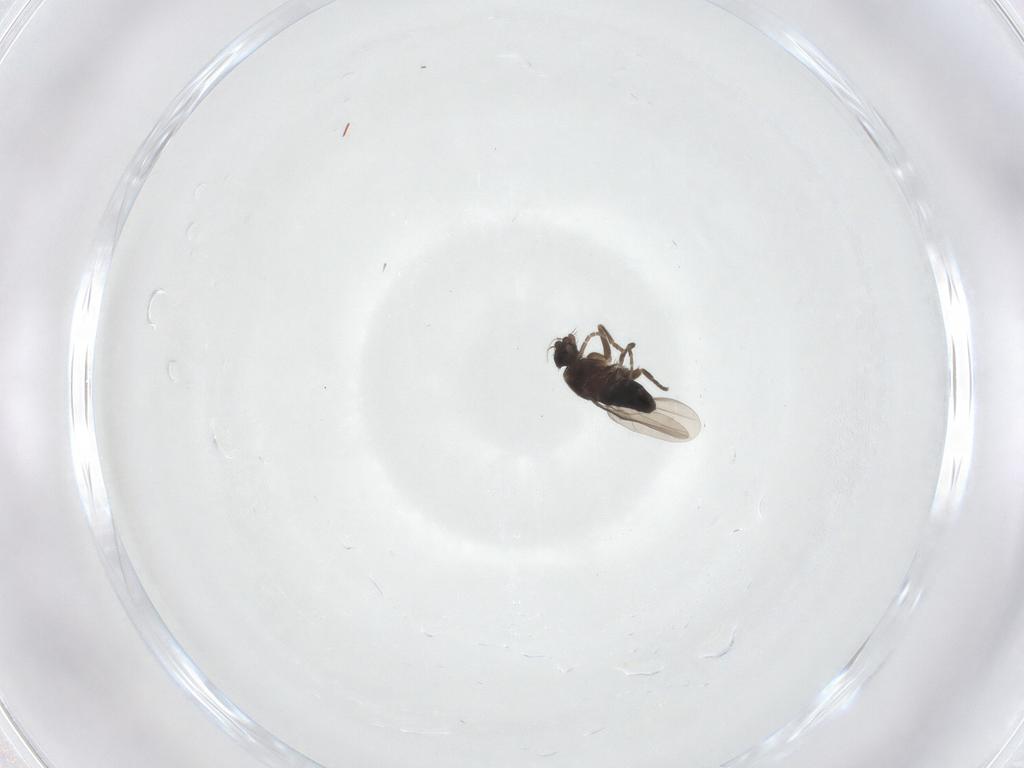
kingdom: Animalia
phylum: Arthropoda
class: Insecta
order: Diptera
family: Phoridae
